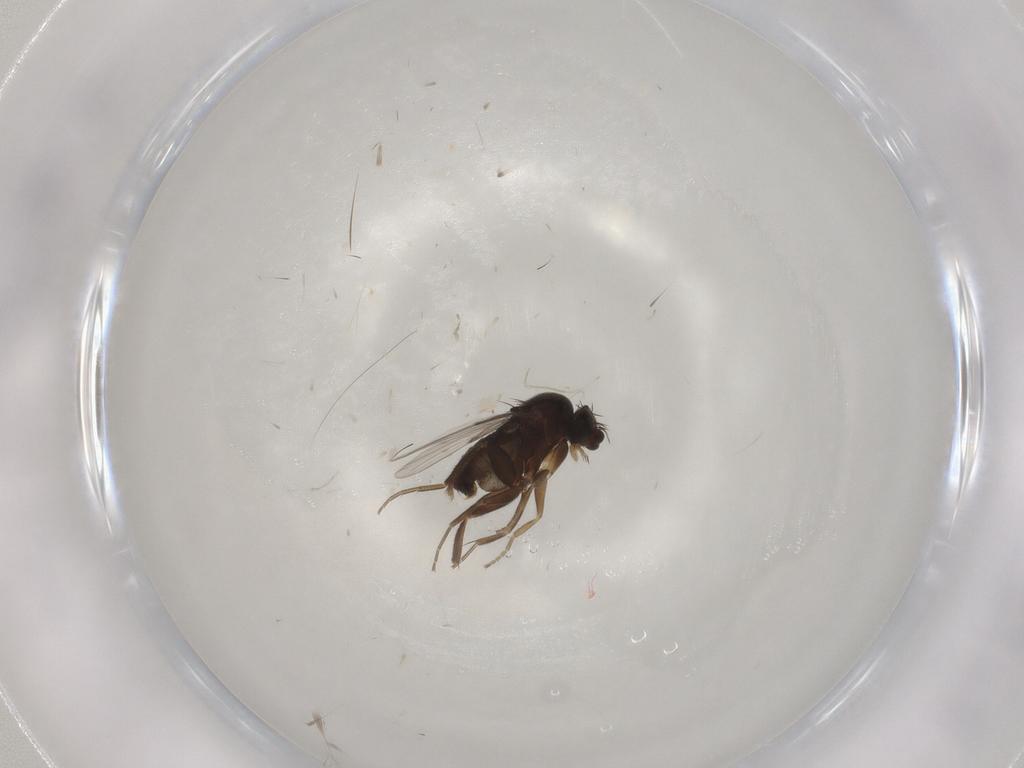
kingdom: Animalia
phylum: Arthropoda
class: Insecta
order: Diptera
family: Phoridae
